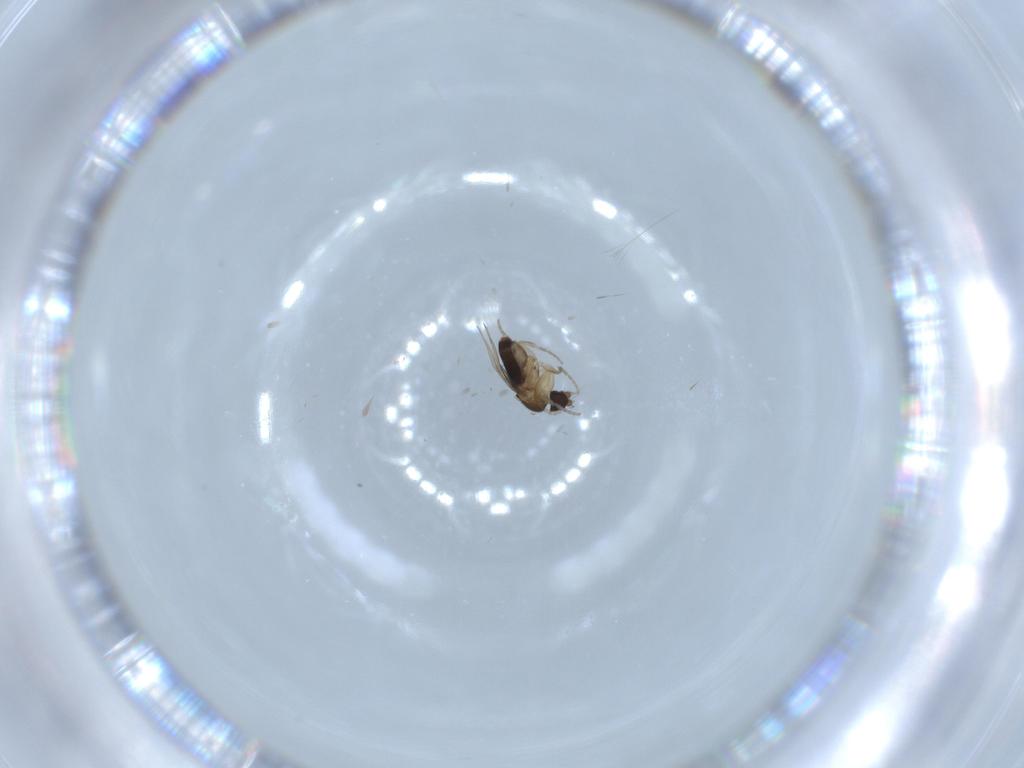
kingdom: Animalia
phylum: Arthropoda
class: Insecta
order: Diptera
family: Phoridae
